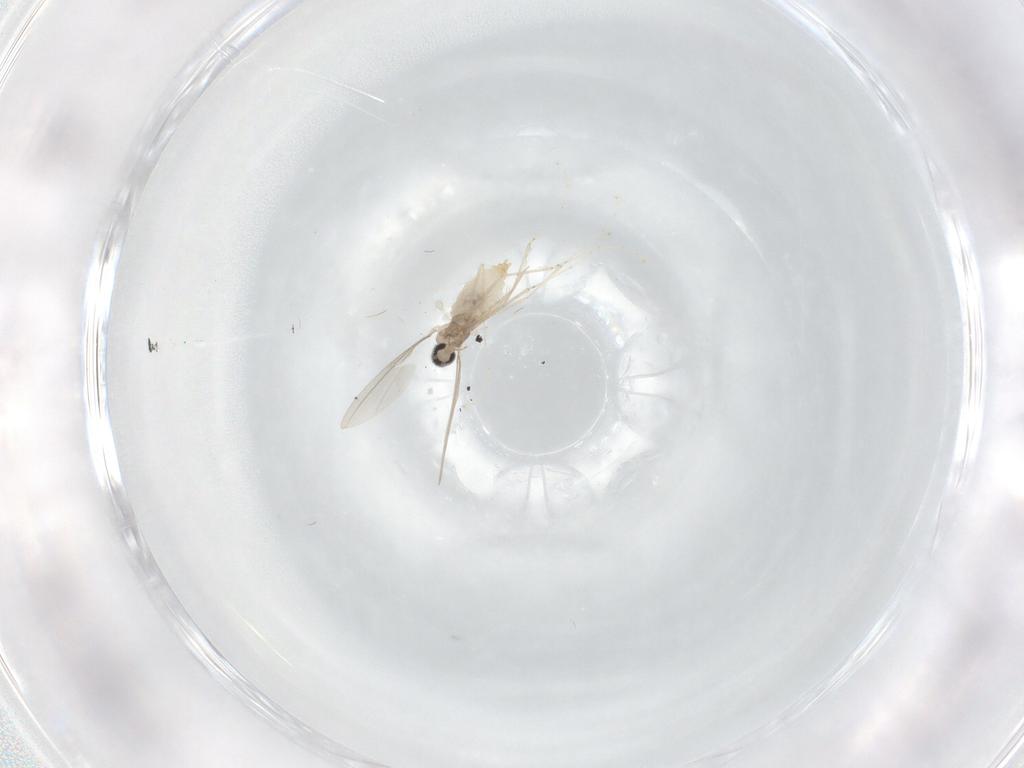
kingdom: Animalia
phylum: Arthropoda
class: Insecta
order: Diptera
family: Cecidomyiidae
